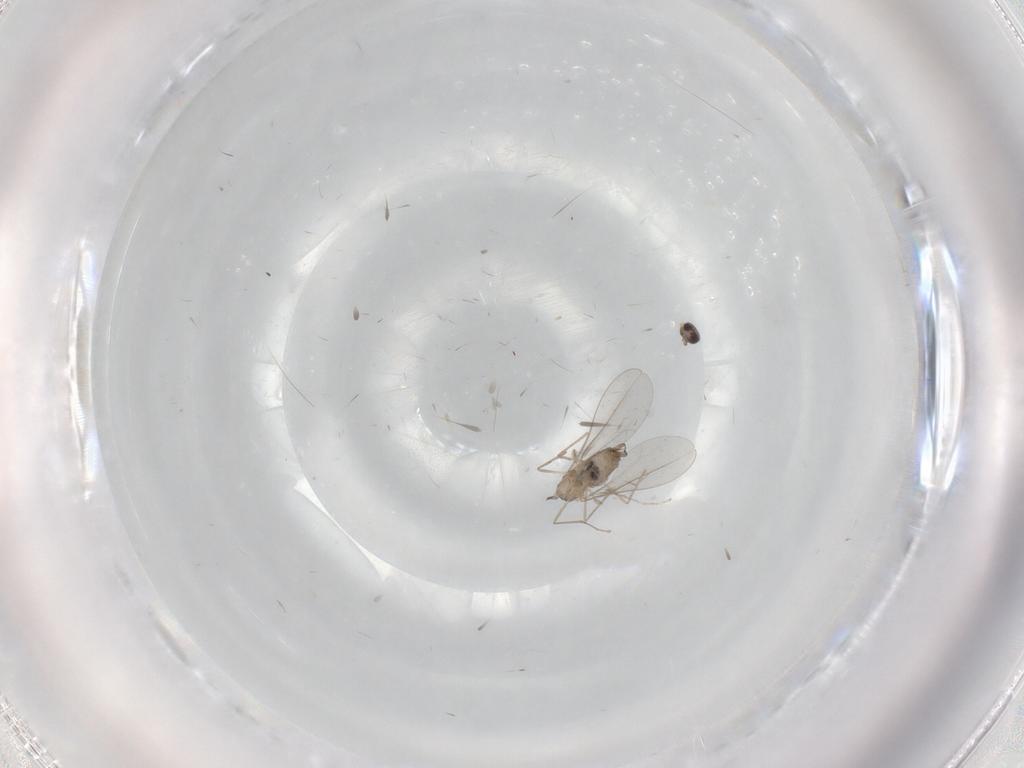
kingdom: Animalia
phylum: Arthropoda
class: Insecta
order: Diptera
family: Cecidomyiidae
